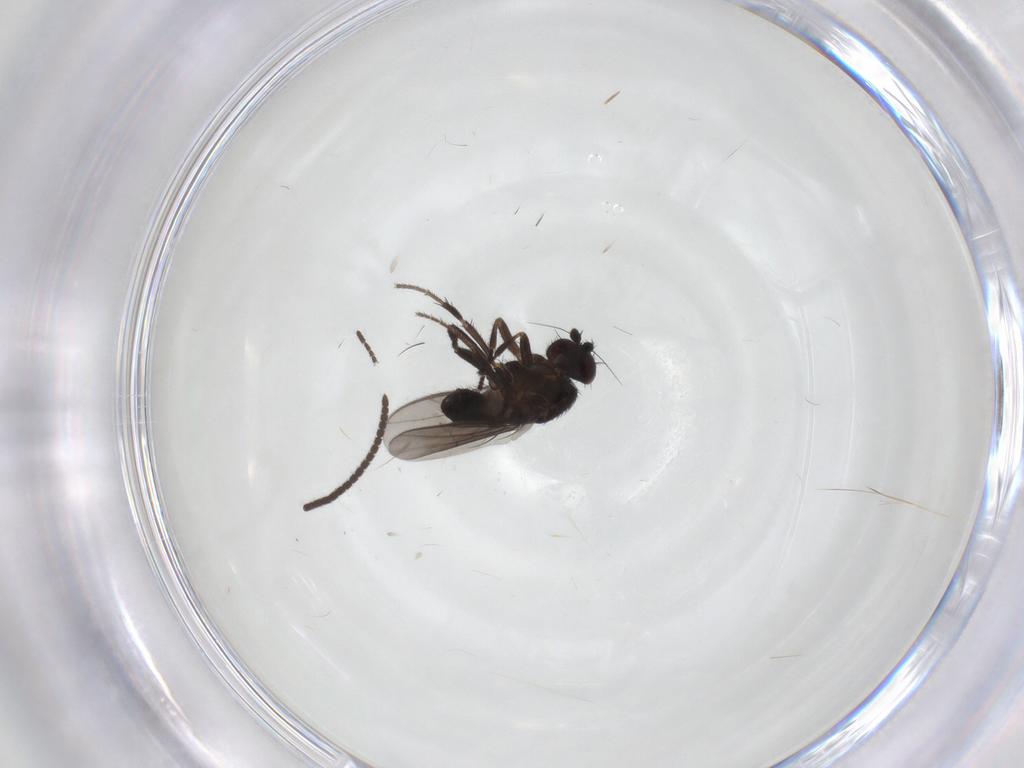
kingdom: Animalia
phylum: Arthropoda
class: Insecta
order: Diptera
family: Sphaeroceridae
